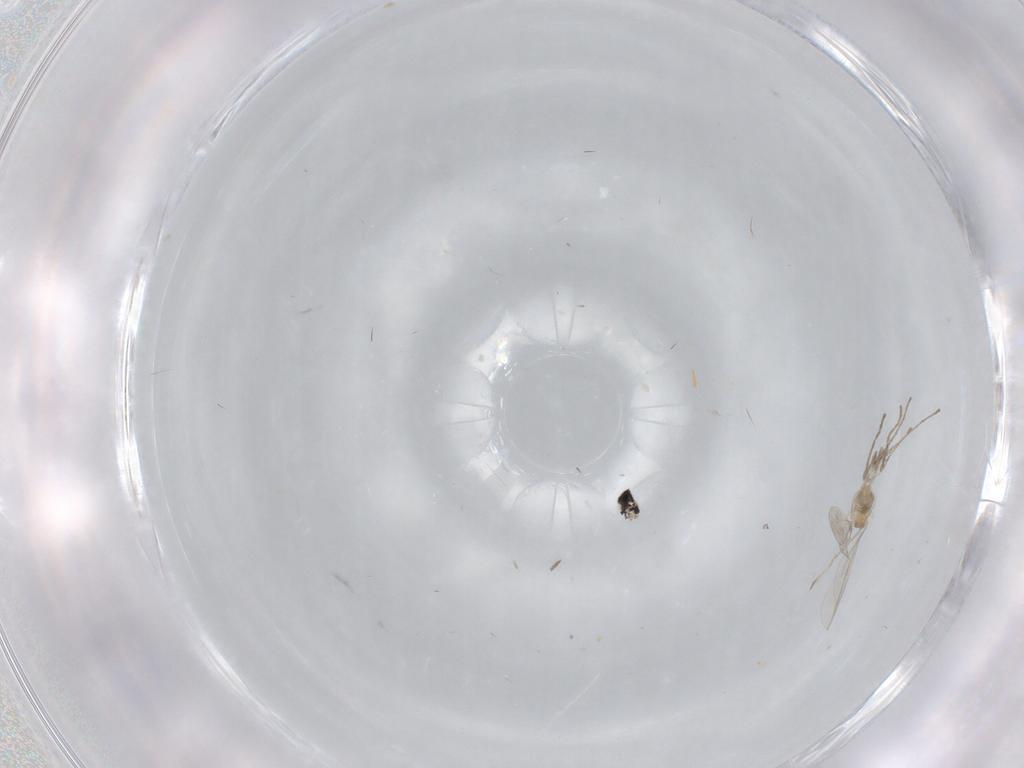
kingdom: Animalia
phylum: Arthropoda
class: Insecta
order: Diptera
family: Cecidomyiidae
